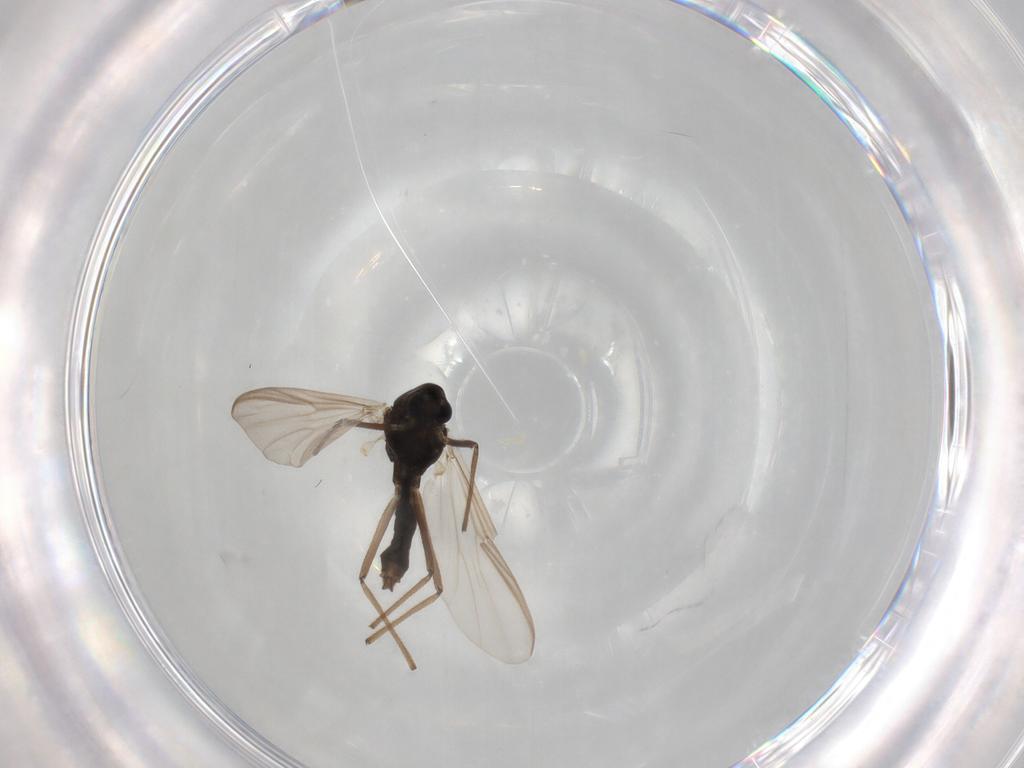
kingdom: Animalia
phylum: Arthropoda
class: Insecta
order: Diptera
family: Chironomidae
